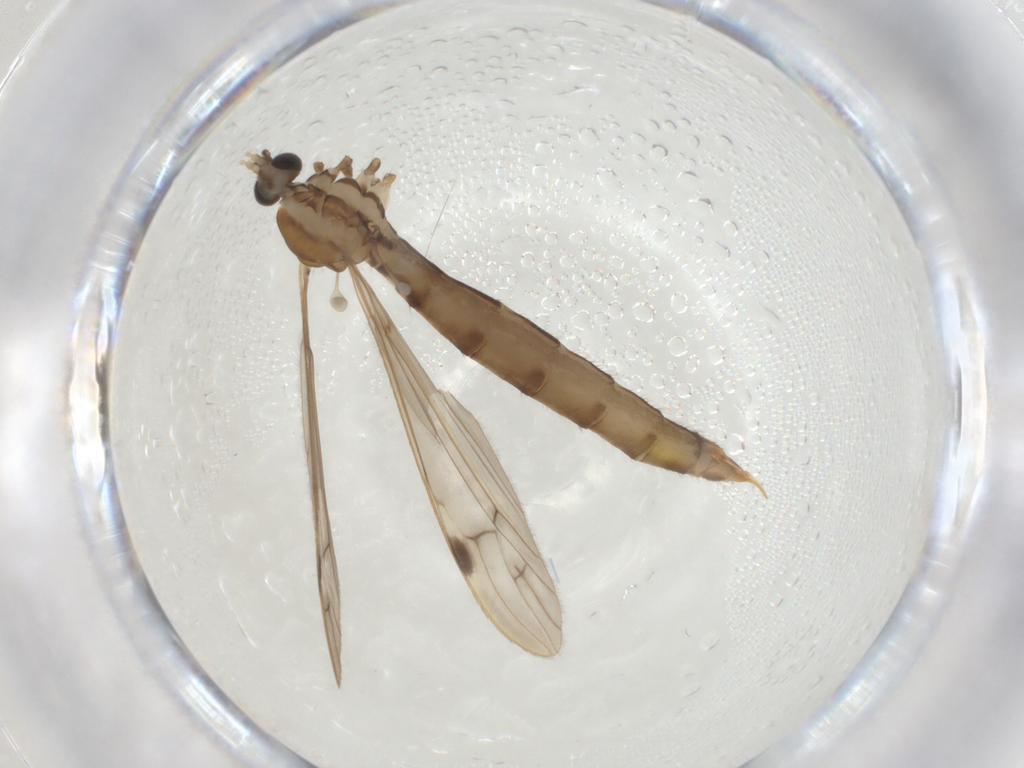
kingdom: Animalia
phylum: Arthropoda
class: Insecta
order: Diptera
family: Limoniidae
